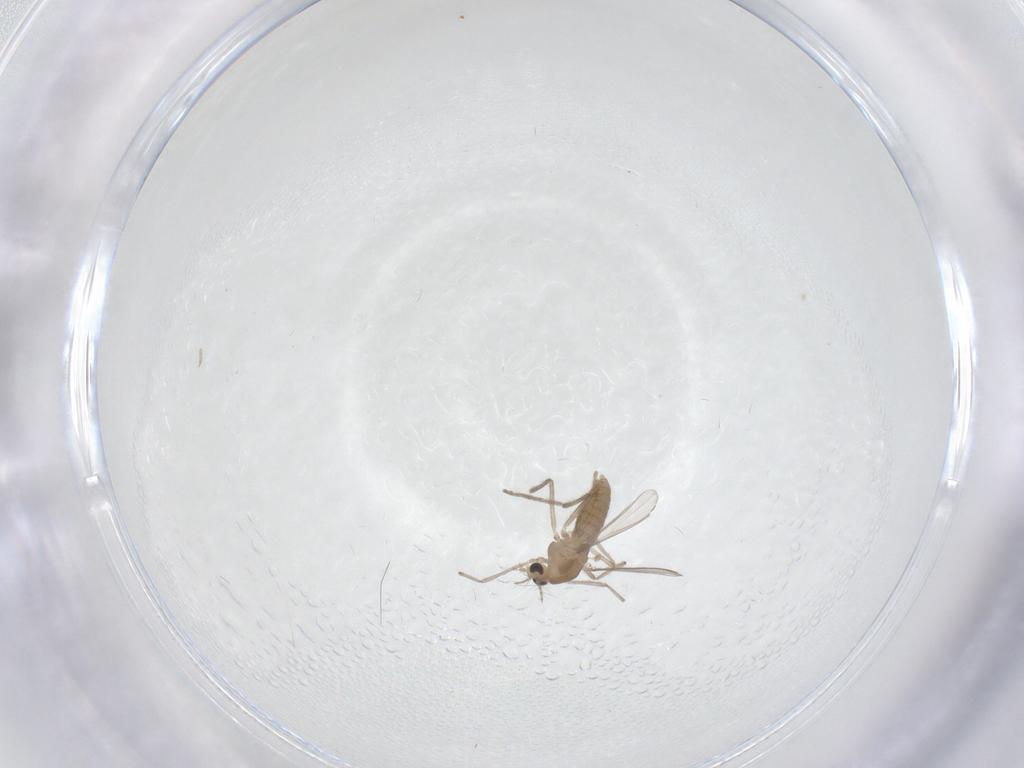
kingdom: Animalia
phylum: Arthropoda
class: Insecta
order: Diptera
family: Chironomidae
